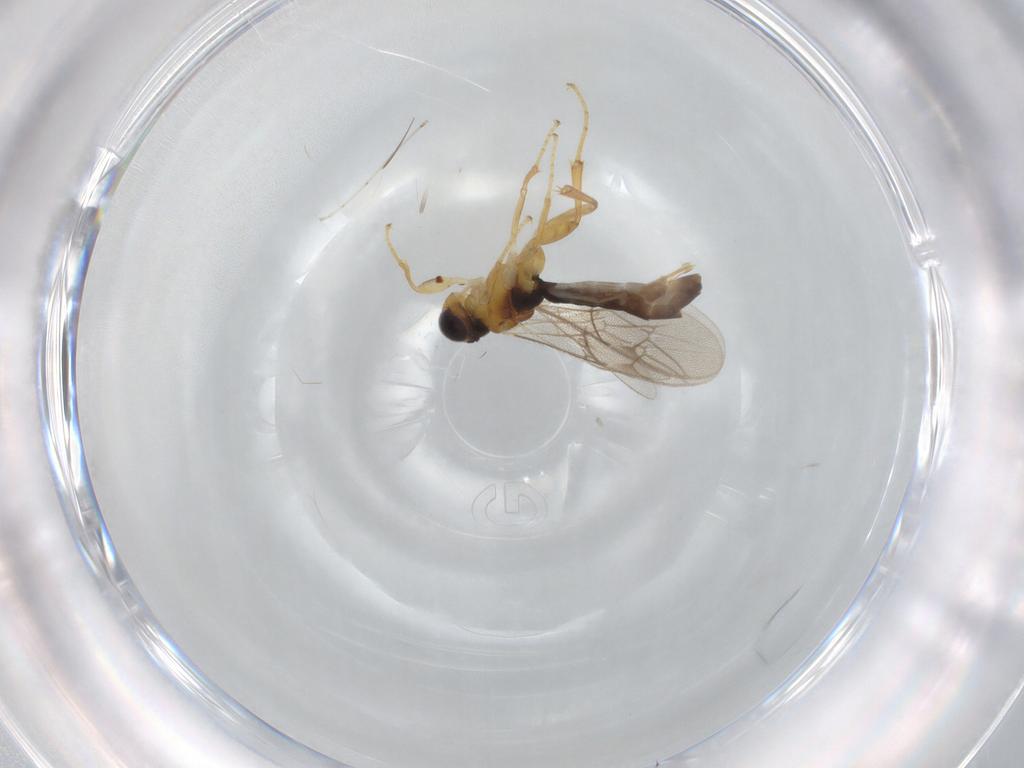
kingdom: Animalia
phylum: Arthropoda
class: Insecta
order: Hymenoptera
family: Ichneumonidae
